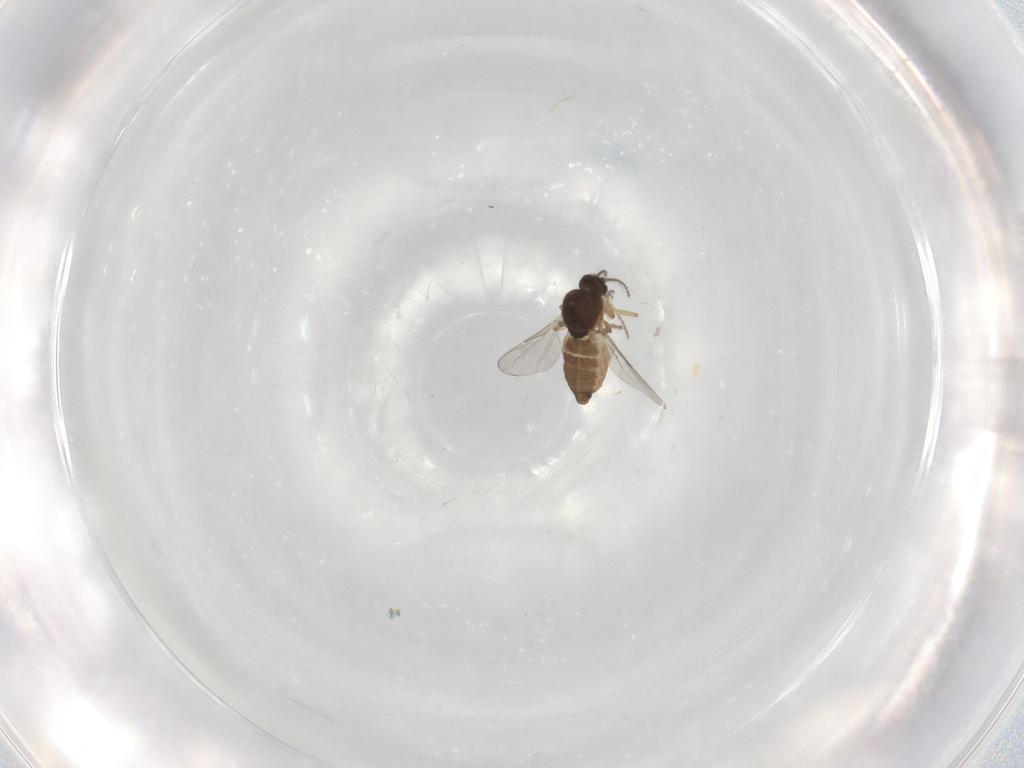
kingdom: Animalia
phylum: Arthropoda
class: Insecta
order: Diptera
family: Ceratopogonidae
